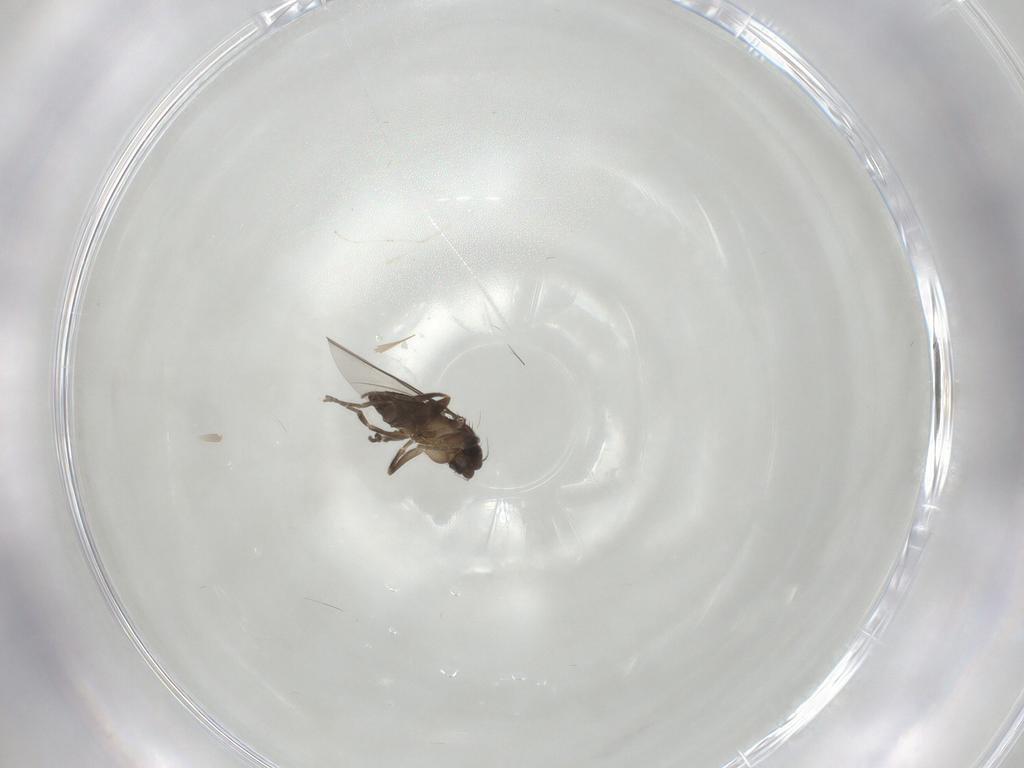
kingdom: Animalia
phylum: Arthropoda
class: Insecta
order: Diptera
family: Phoridae
